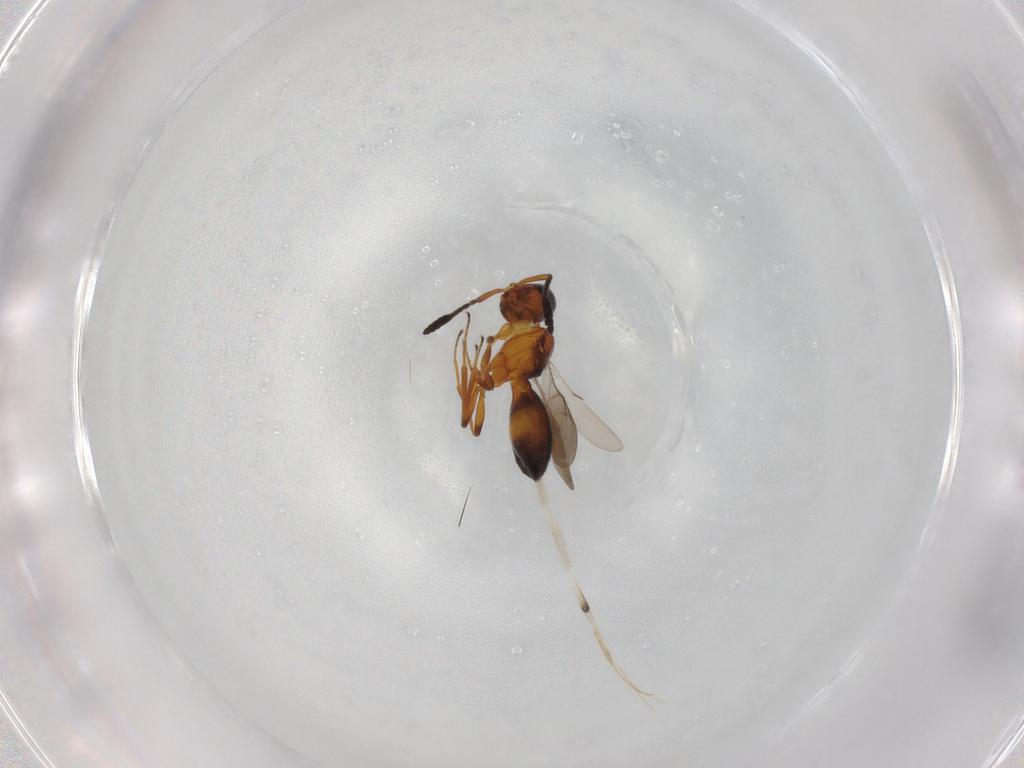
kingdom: Animalia
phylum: Arthropoda
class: Insecta
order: Hymenoptera
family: Scelionidae
